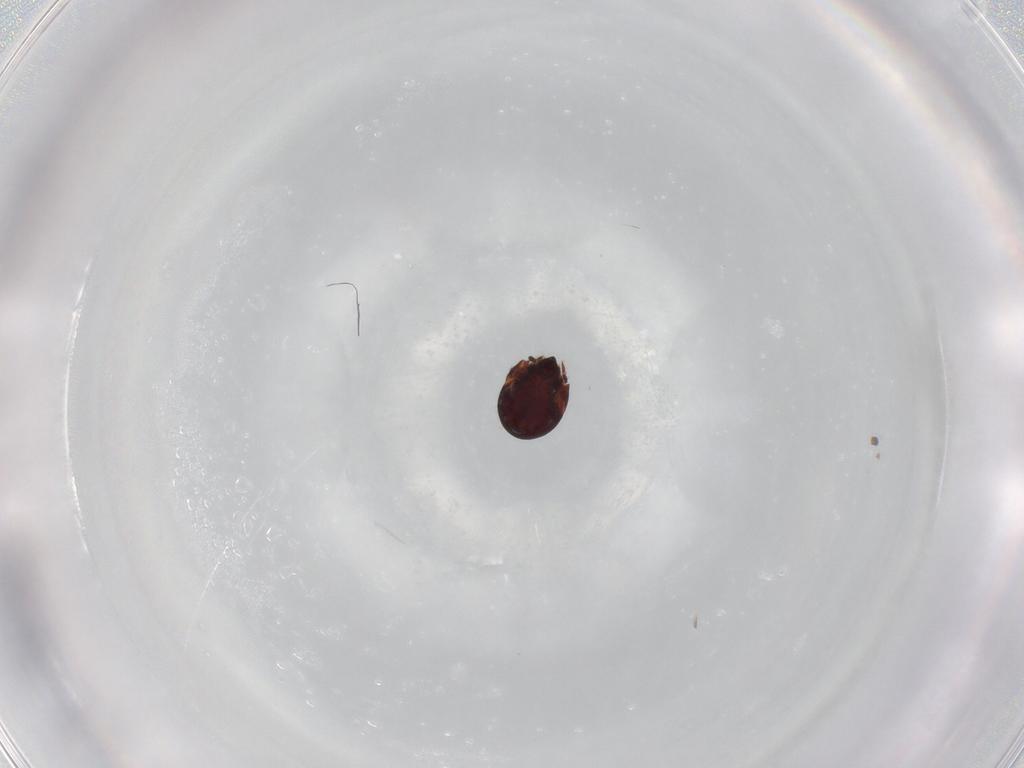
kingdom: Animalia
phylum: Arthropoda
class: Arachnida
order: Sarcoptiformes
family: Humerobatidae
